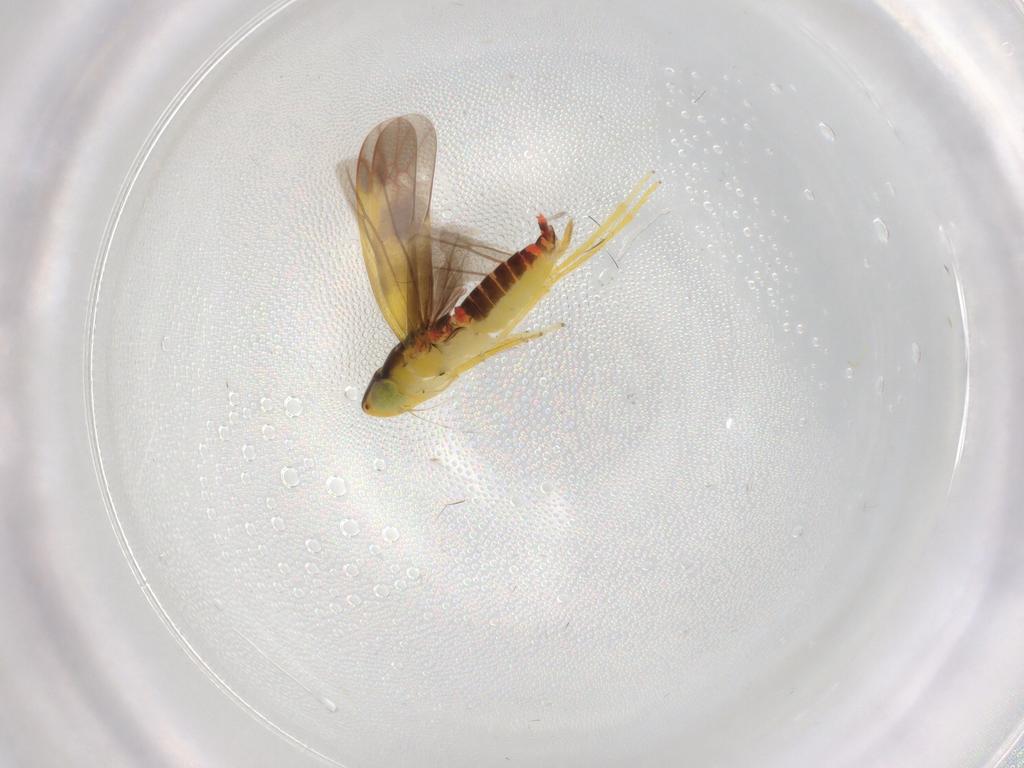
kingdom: Animalia
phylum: Arthropoda
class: Insecta
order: Hemiptera
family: Cicadellidae
